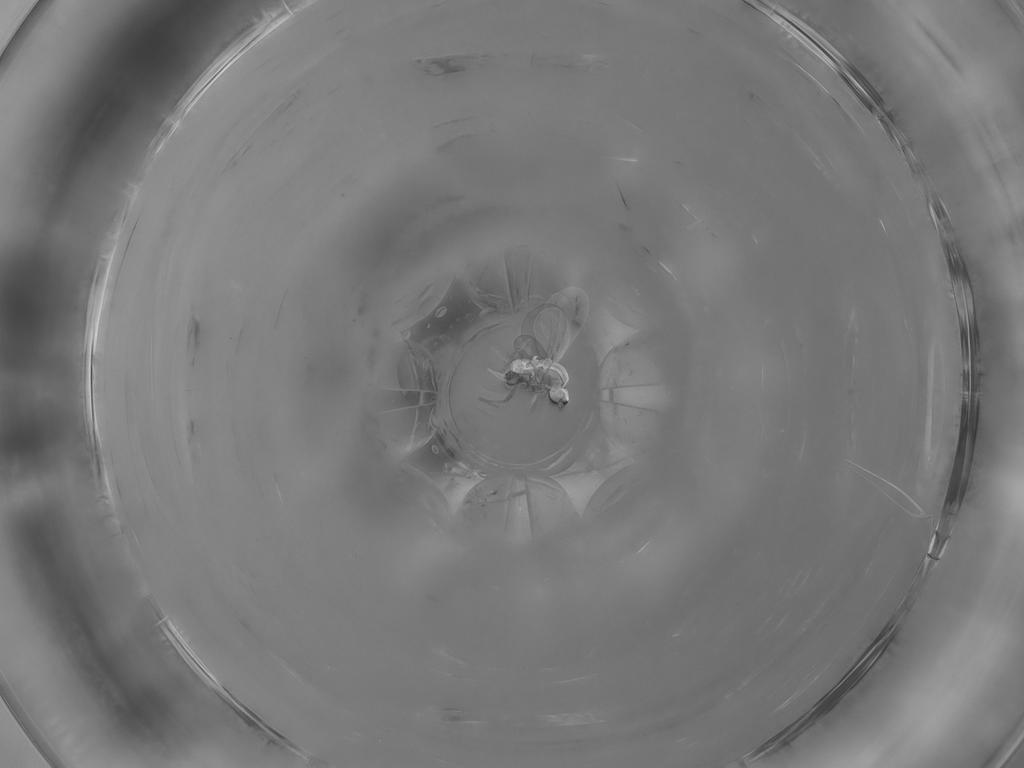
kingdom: Animalia
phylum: Arthropoda
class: Insecta
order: Diptera
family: Cecidomyiidae
